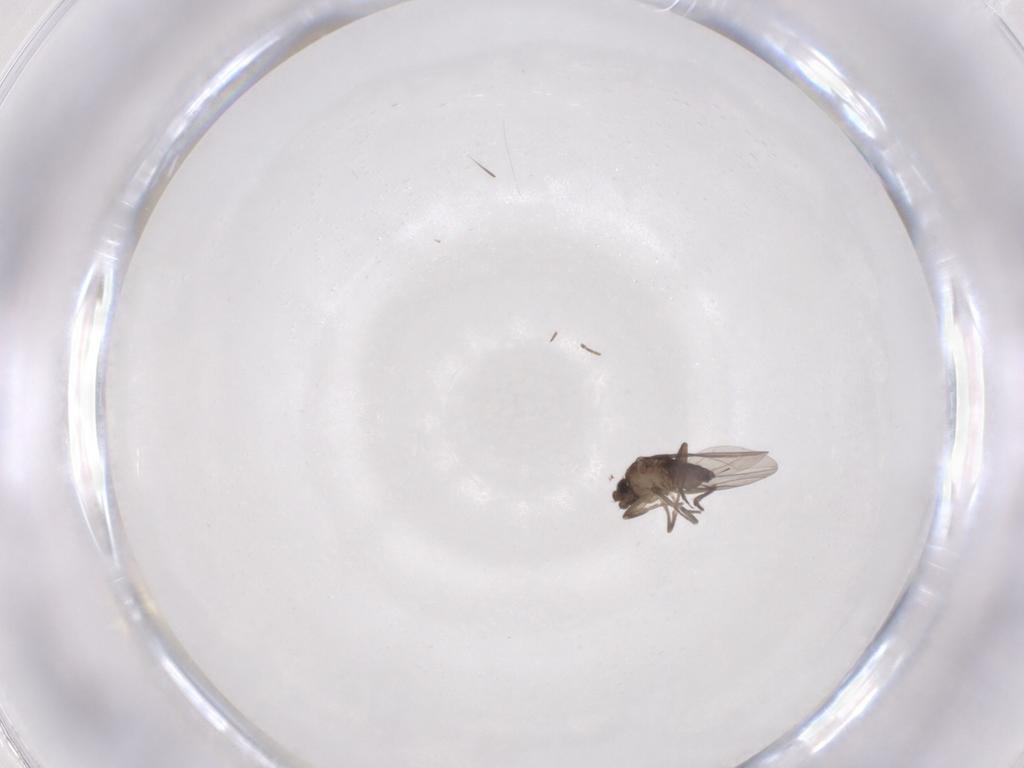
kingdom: Animalia
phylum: Arthropoda
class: Insecta
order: Diptera
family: Phoridae
